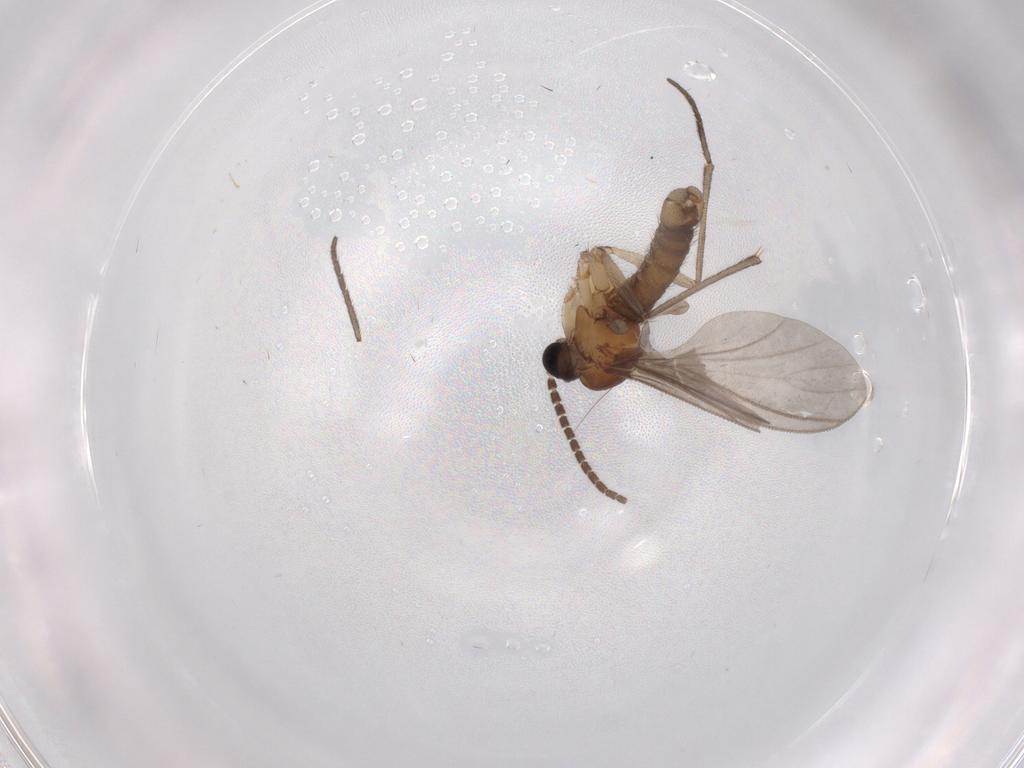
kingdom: Animalia
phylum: Arthropoda
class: Insecta
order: Diptera
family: Sciaridae
